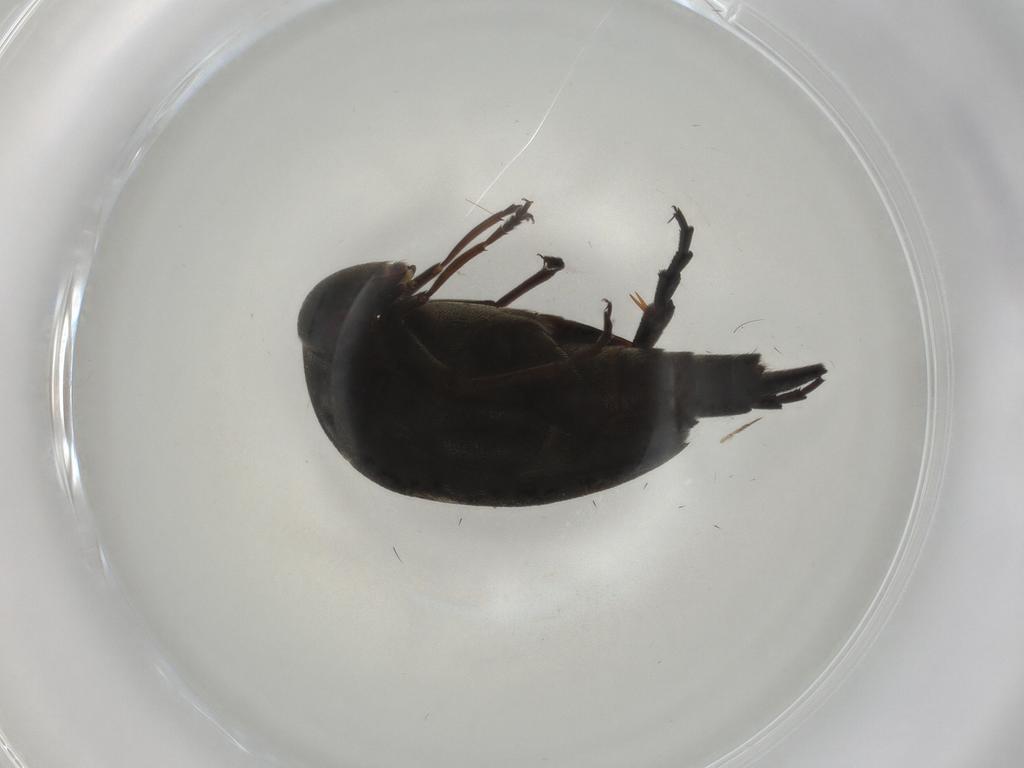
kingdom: Animalia
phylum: Arthropoda
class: Insecta
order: Coleoptera
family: Mordellidae
